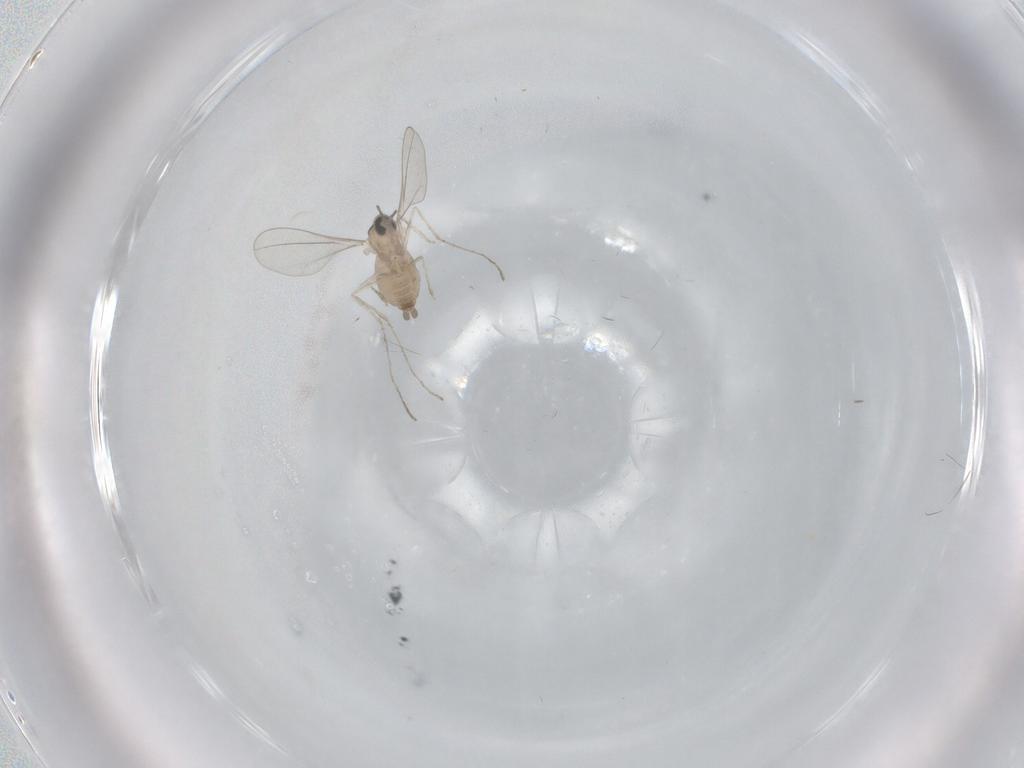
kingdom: Animalia
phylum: Arthropoda
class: Insecta
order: Diptera
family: Cecidomyiidae
